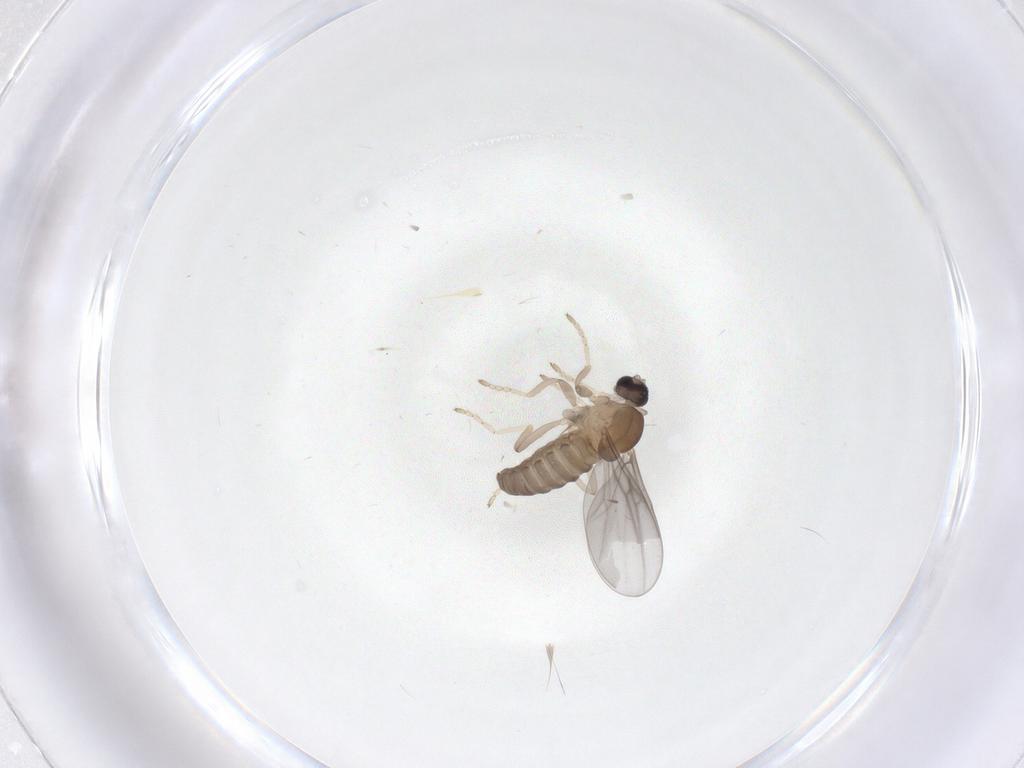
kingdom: Animalia
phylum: Arthropoda
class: Insecta
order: Diptera
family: Cecidomyiidae
